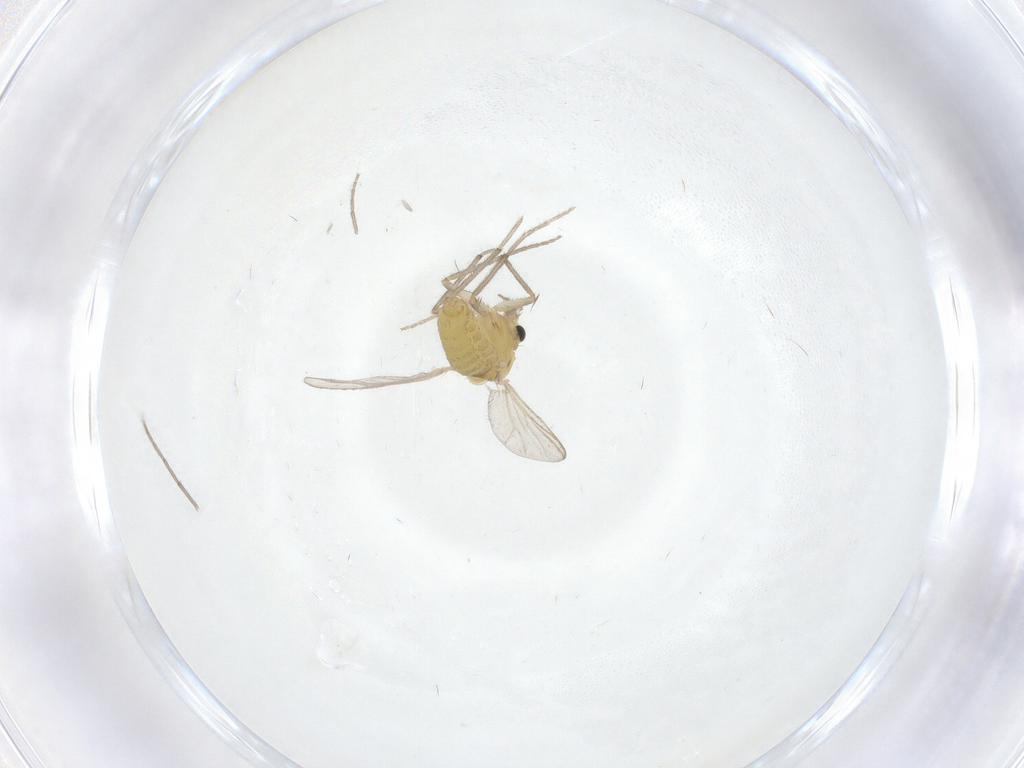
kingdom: Animalia
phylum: Arthropoda
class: Insecta
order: Diptera
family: Chironomidae
